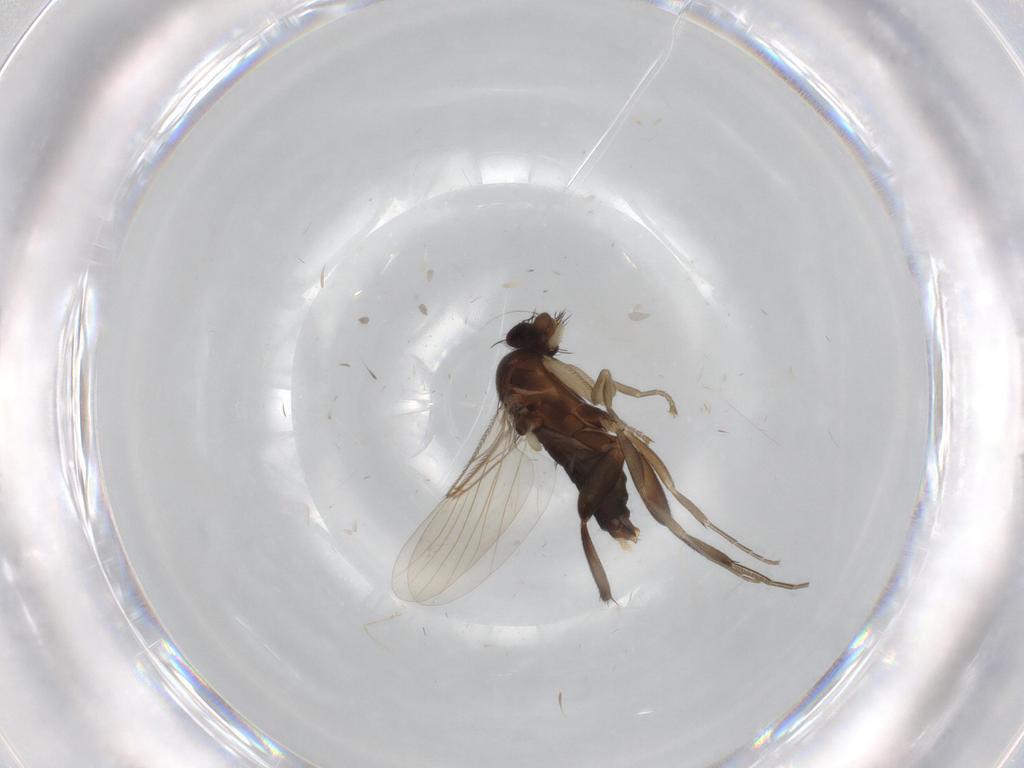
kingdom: Animalia
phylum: Arthropoda
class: Insecta
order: Diptera
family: Phoridae
